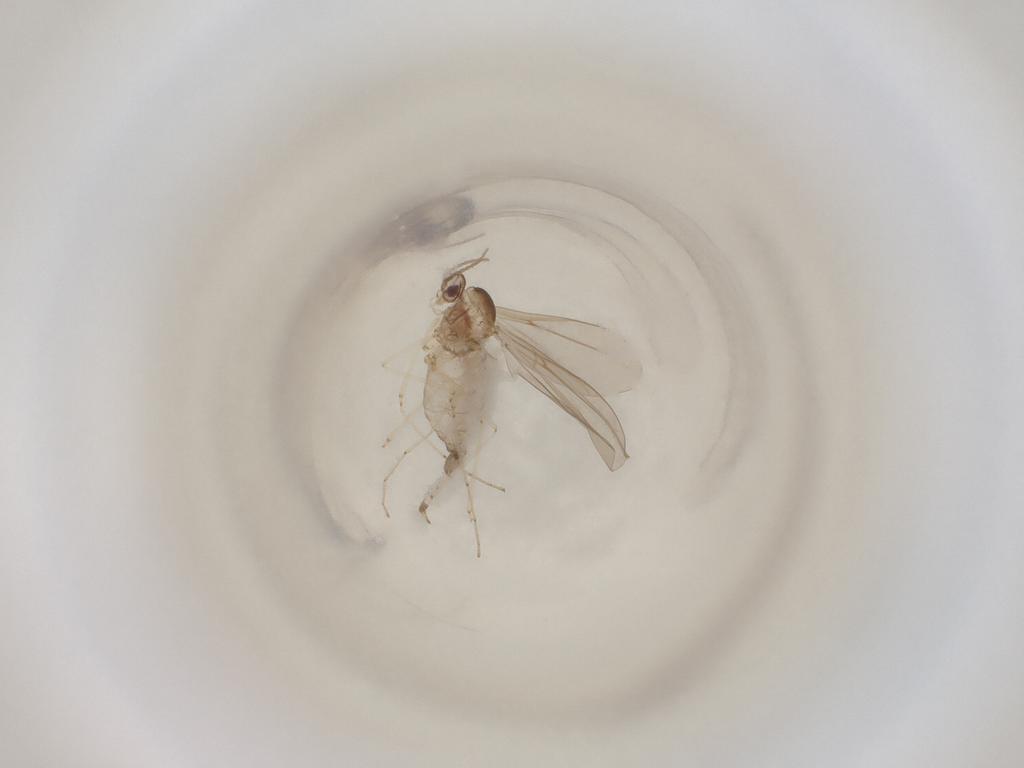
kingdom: Animalia
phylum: Arthropoda
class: Insecta
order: Diptera
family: Cecidomyiidae
